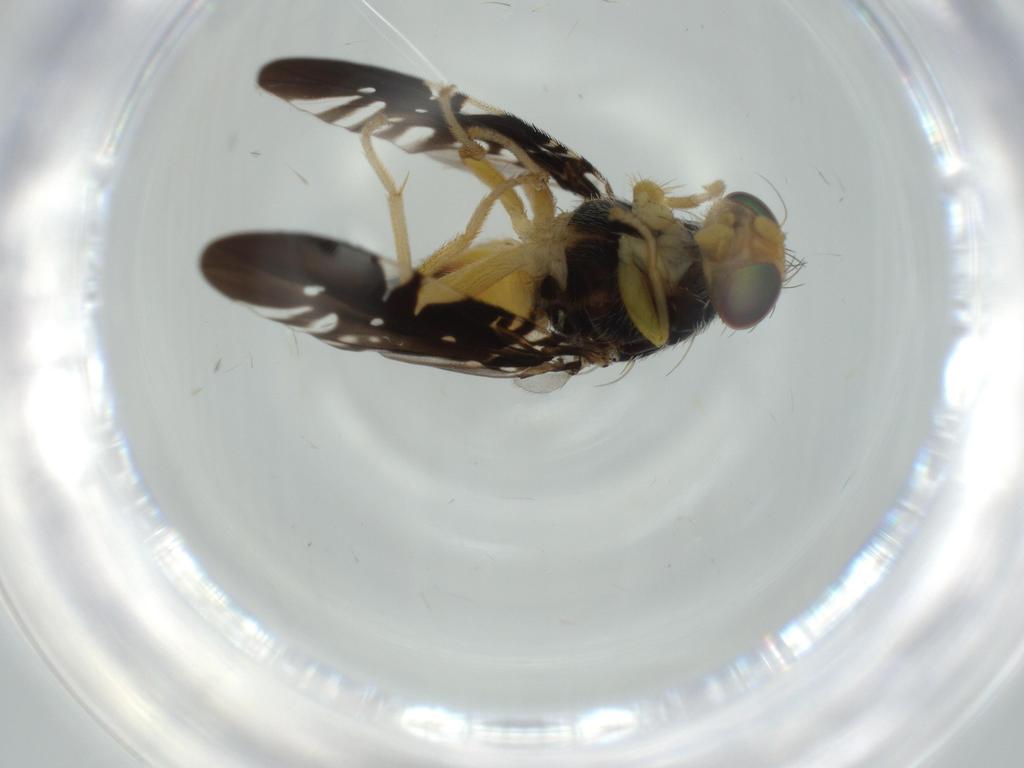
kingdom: Animalia
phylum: Arthropoda
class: Insecta
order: Diptera
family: Tephritidae
